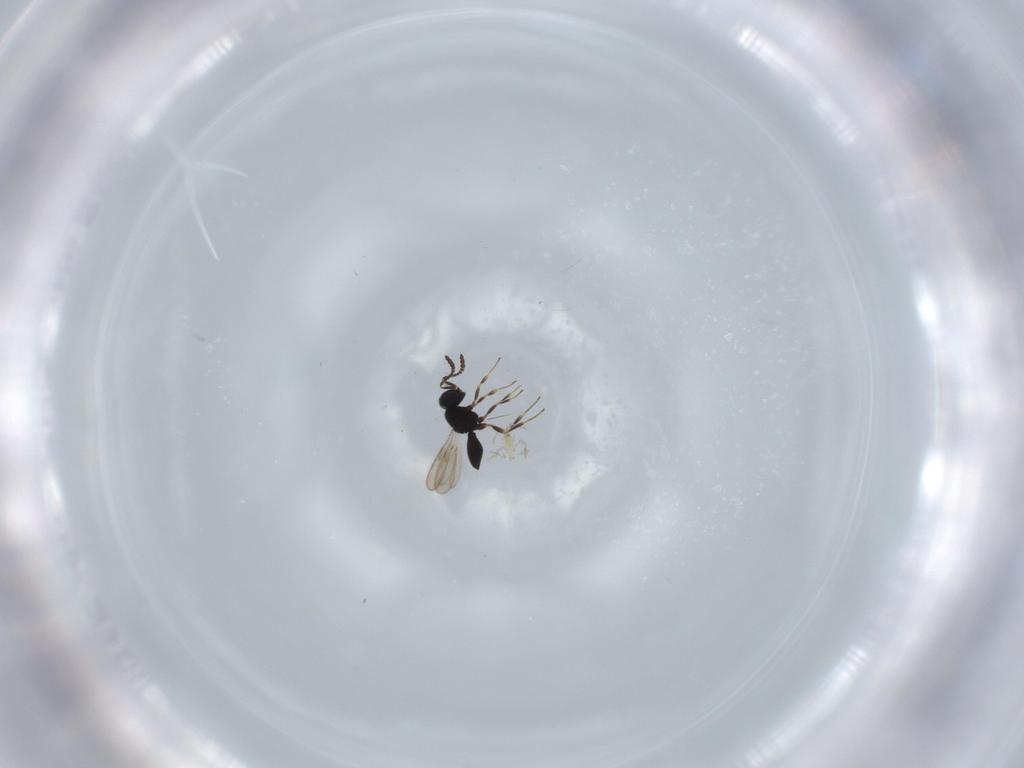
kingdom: Animalia
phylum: Arthropoda
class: Insecta
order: Hymenoptera
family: Scelionidae
